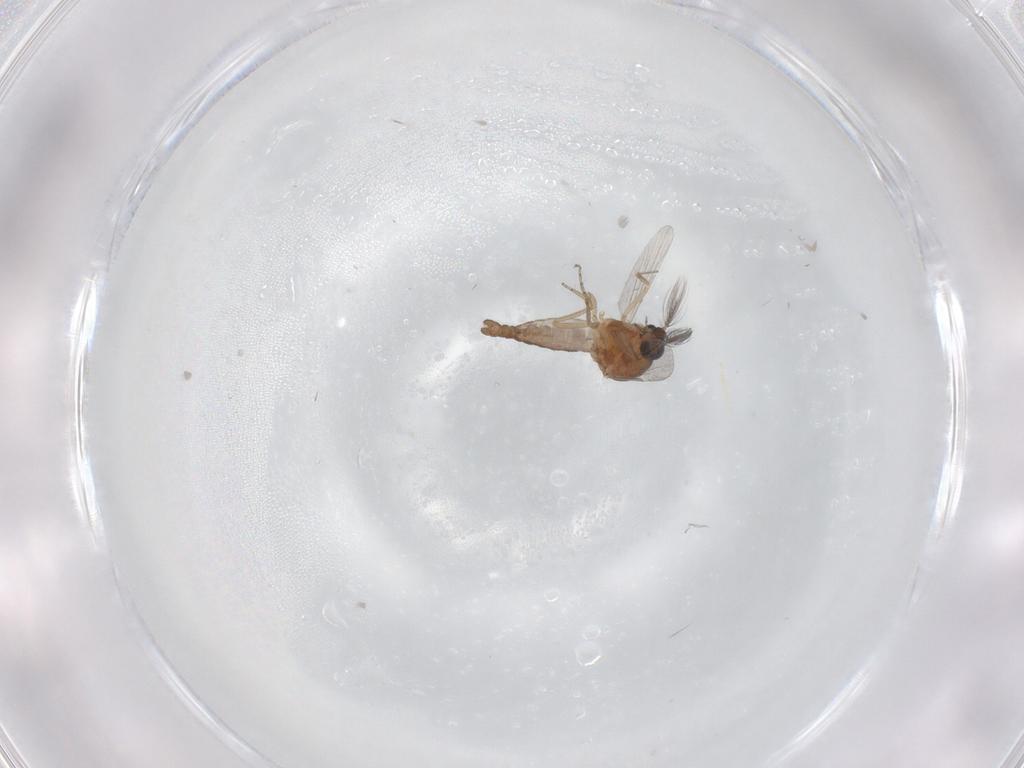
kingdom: Animalia
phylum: Arthropoda
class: Insecta
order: Diptera
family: Ceratopogonidae
